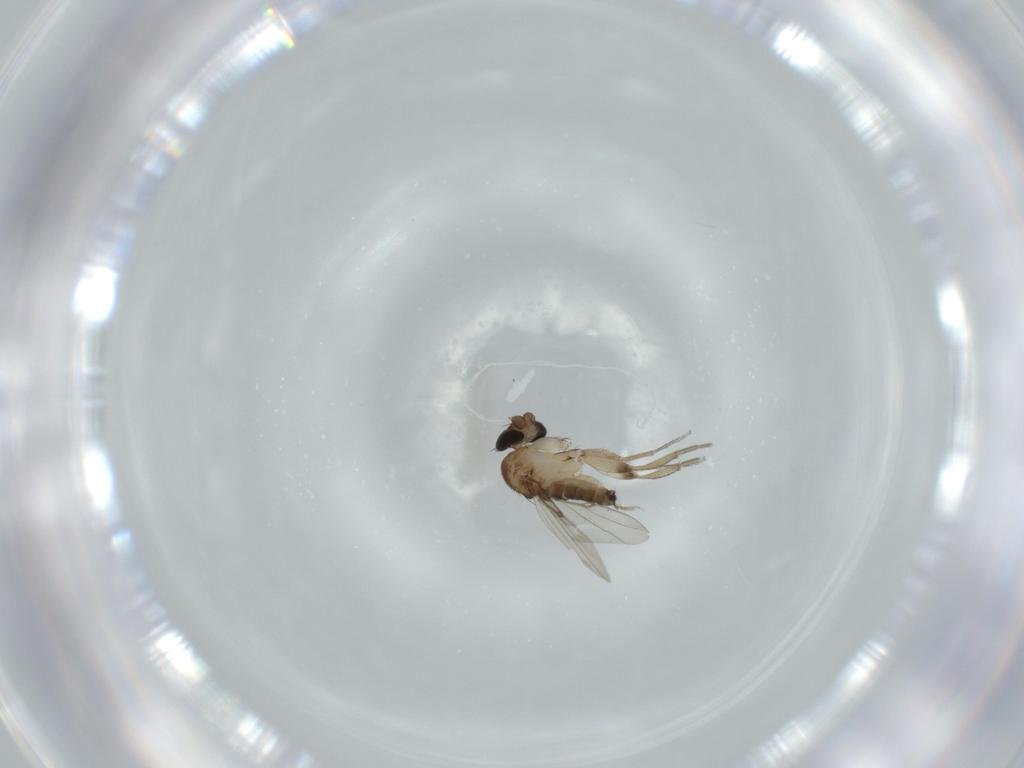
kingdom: Animalia
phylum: Arthropoda
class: Insecta
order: Diptera
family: Phoridae
